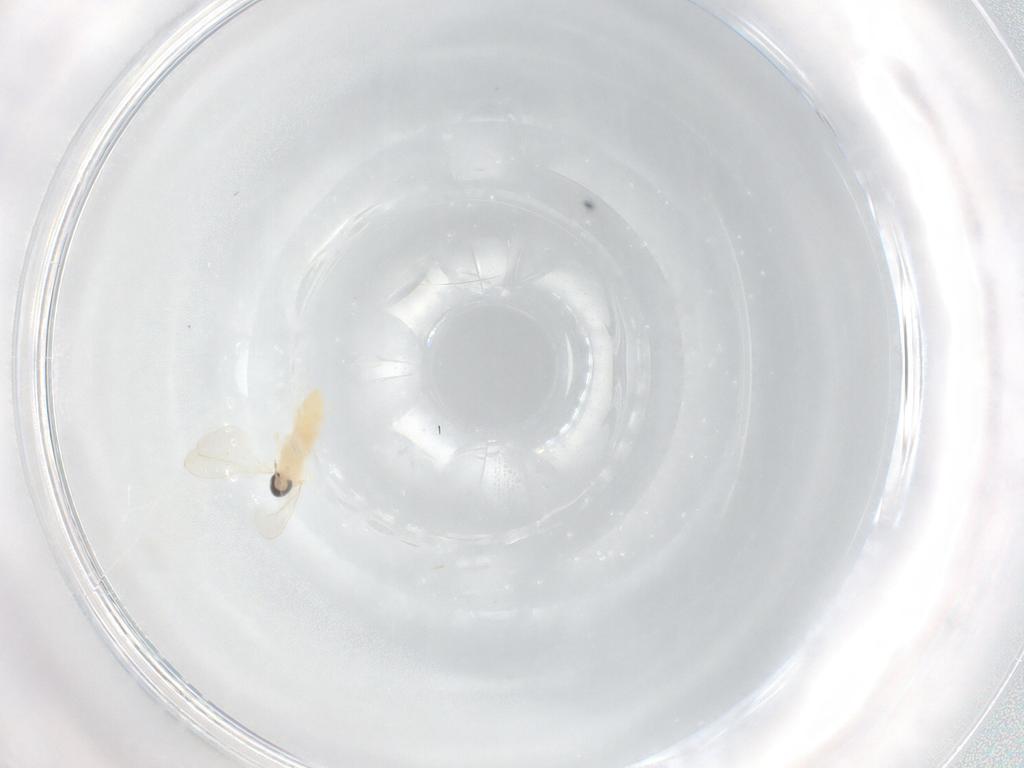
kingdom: Animalia
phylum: Arthropoda
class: Insecta
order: Diptera
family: Cecidomyiidae
